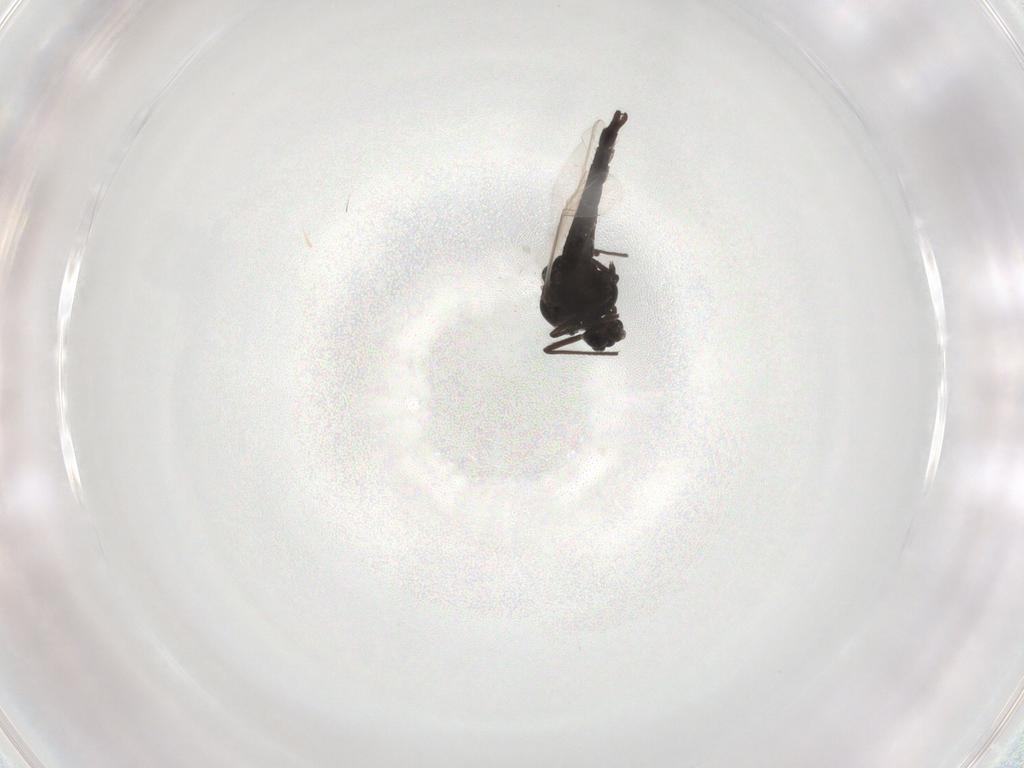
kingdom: Animalia
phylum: Arthropoda
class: Insecta
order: Diptera
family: Chironomidae
